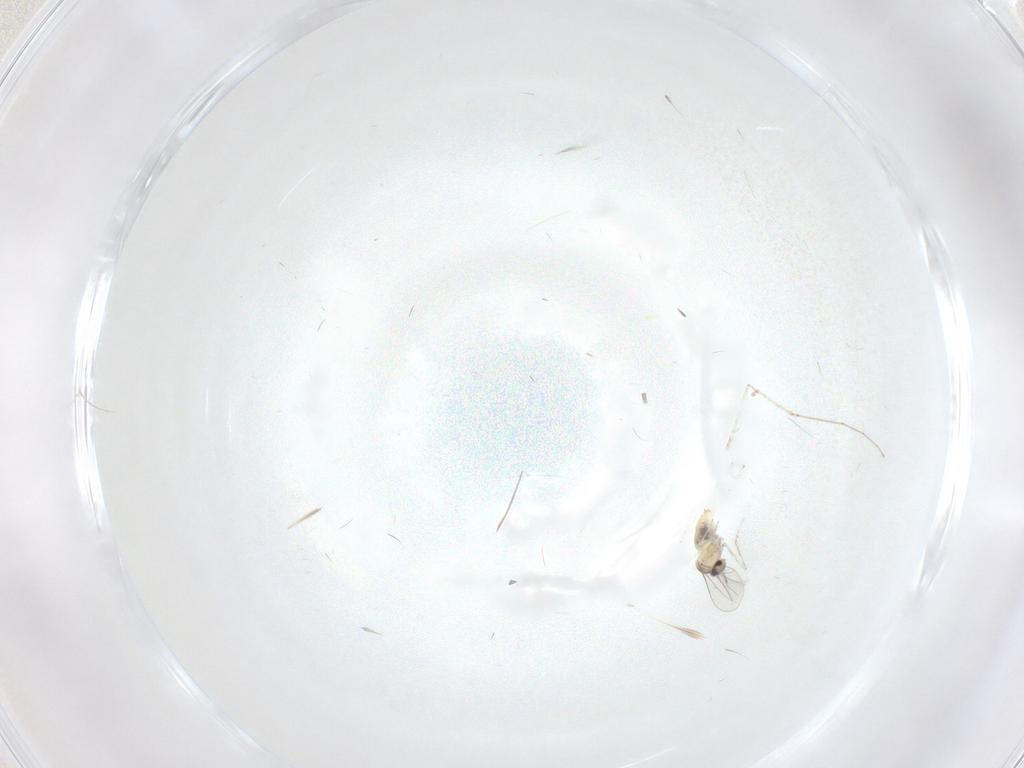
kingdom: Animalia
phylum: Arthropoda
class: Insecta
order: Diptera
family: Cecidomyiidae
